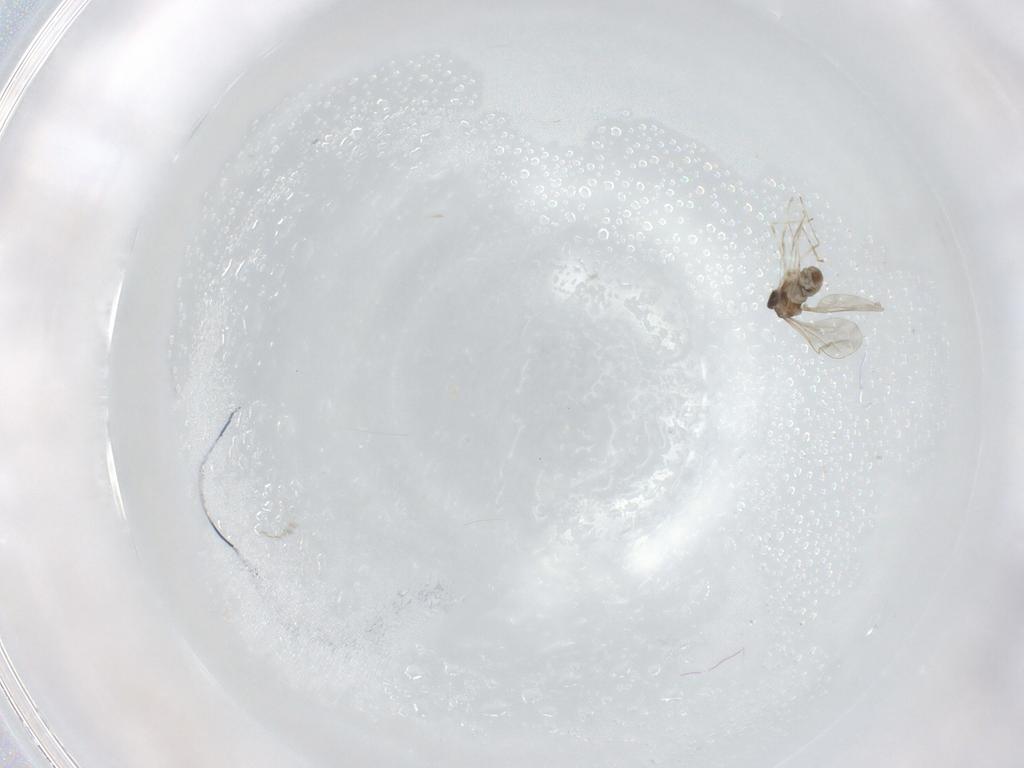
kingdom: Animalia
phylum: Arthropoda
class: Insecta
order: Diptera
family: Cecidomyiidae
